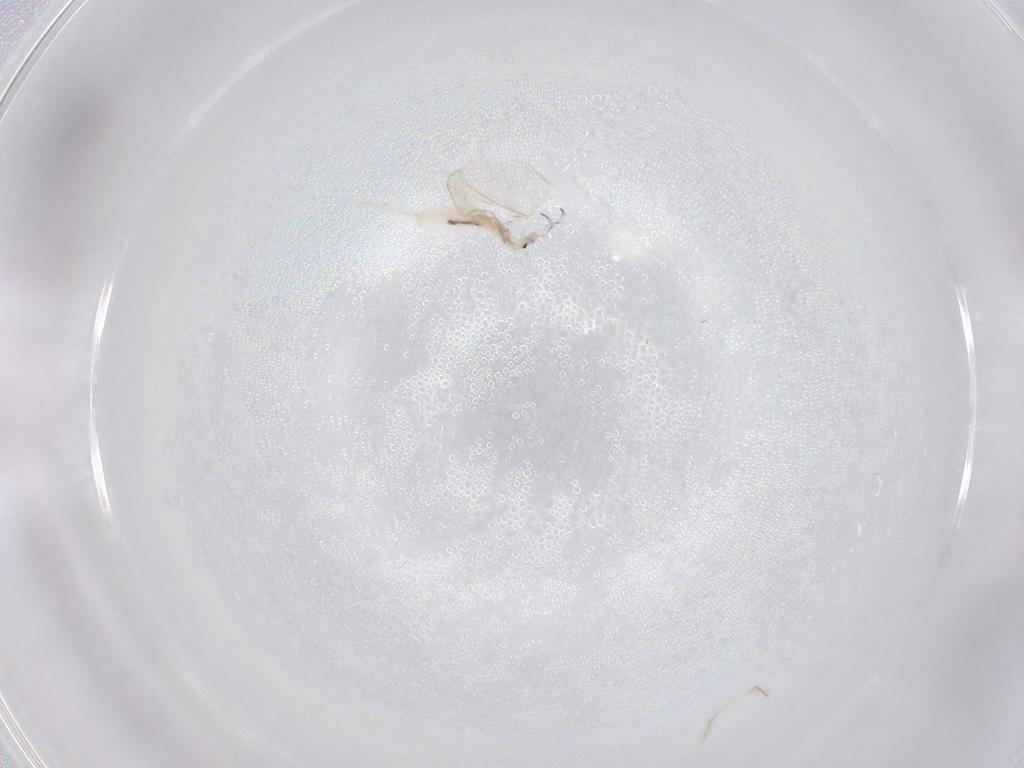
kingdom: Animalia
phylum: Arthropoda
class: Collembola
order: Entomobryomorpha
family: Entomobryidae
